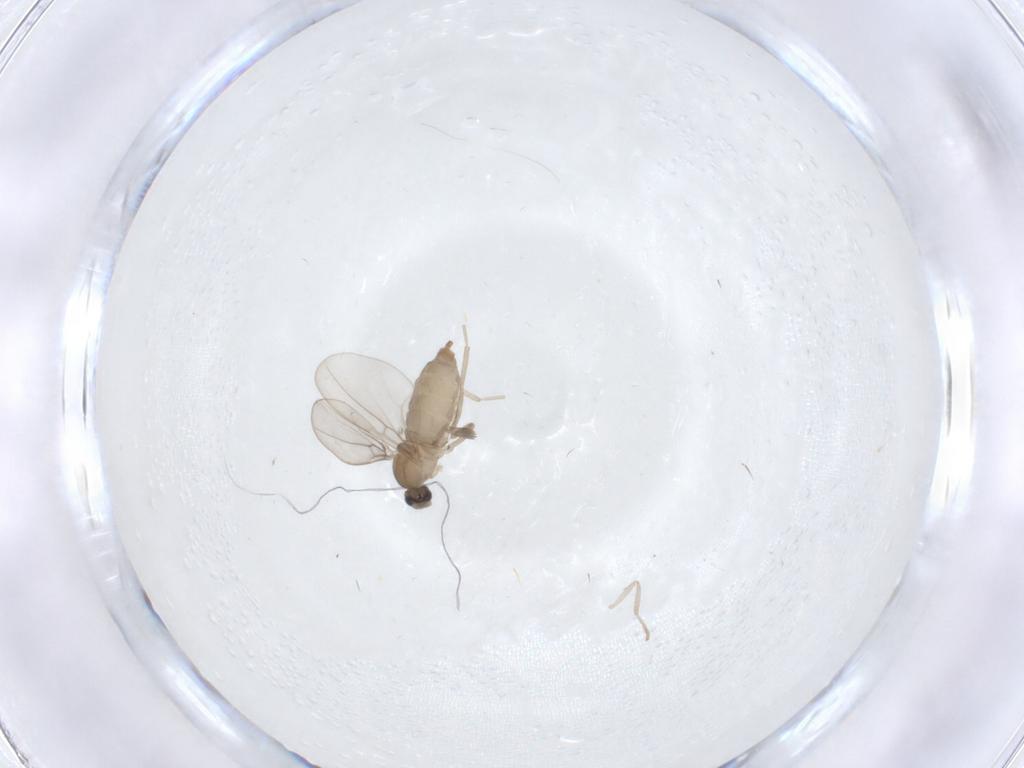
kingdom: Animalia
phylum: Arthropoda
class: Insecta
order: Diptera
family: Cecidomyiidae
